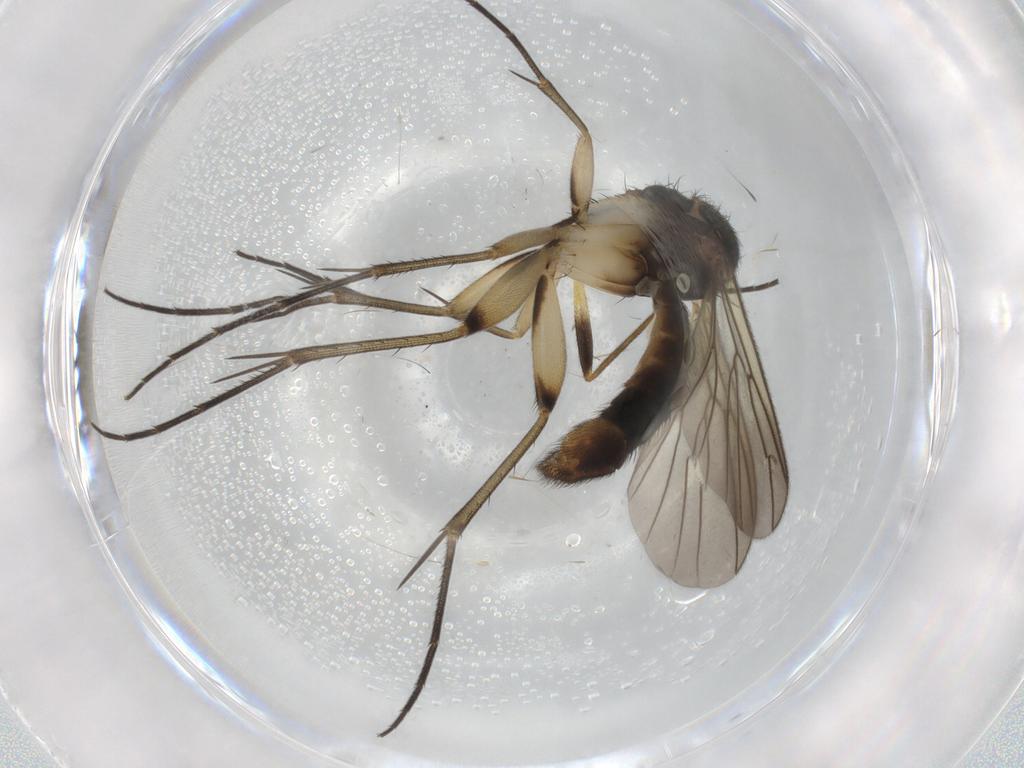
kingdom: Animalia
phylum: Arthropoda
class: Insecta
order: Diptera
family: Mycetophilidae
